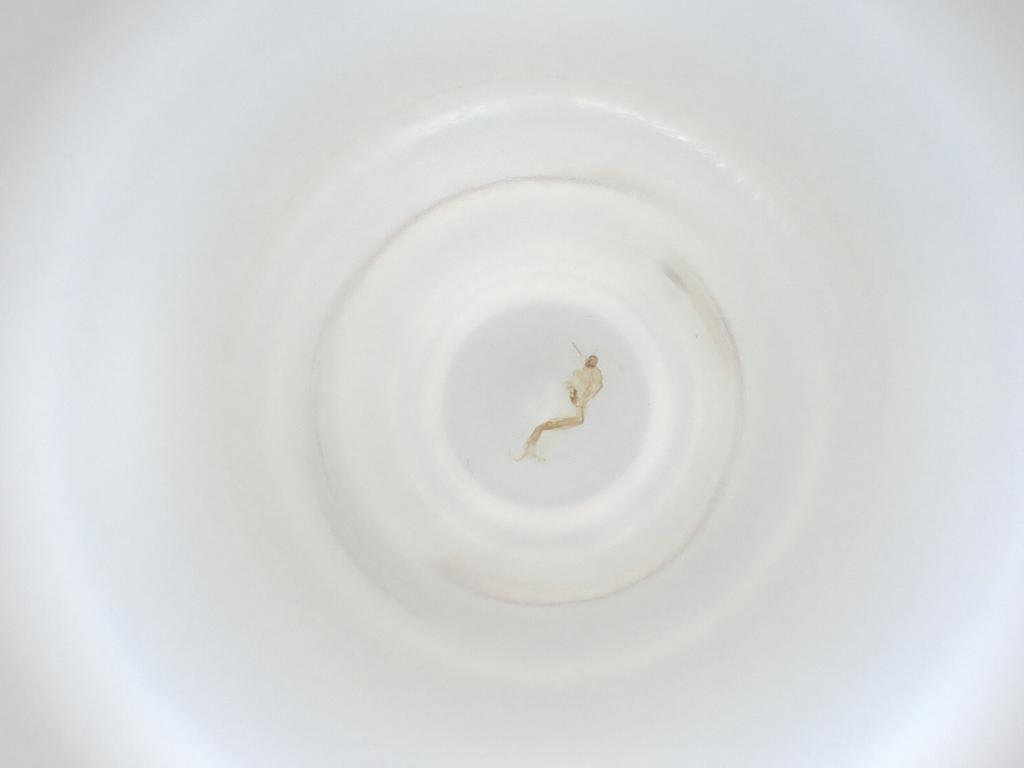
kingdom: Animalia
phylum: Arthropoda
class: Insecta
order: Diptera
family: Cecidomyiidae
